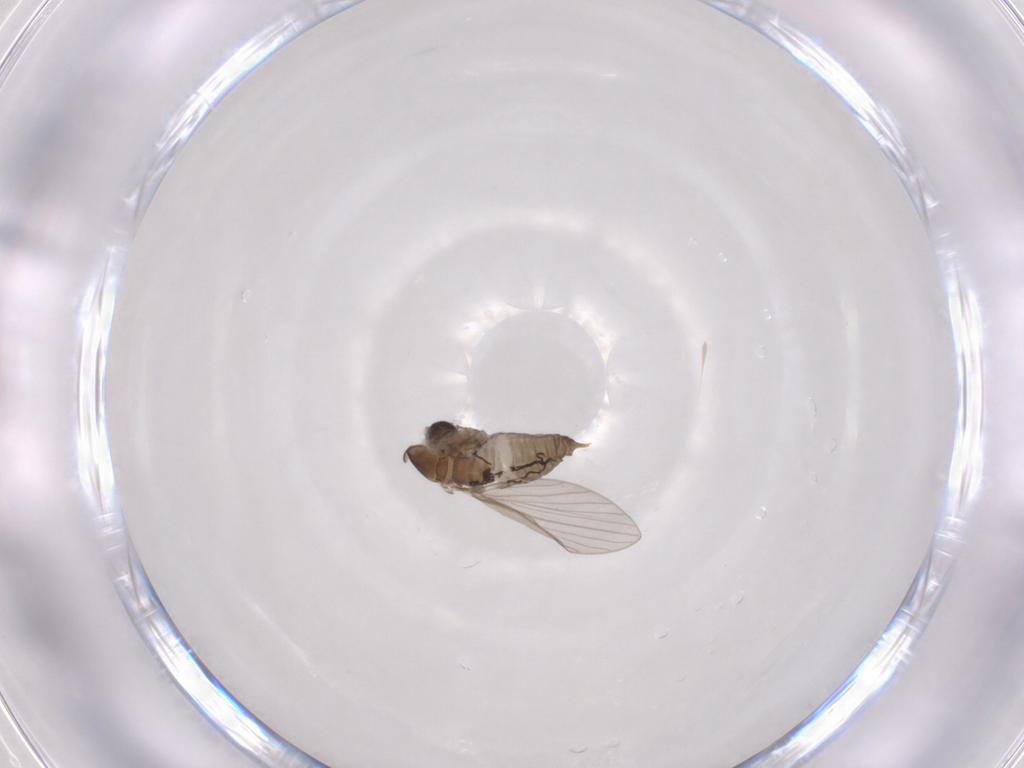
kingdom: Animalia
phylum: Arthropoda
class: Insecta
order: Diptera
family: Psychodidae
